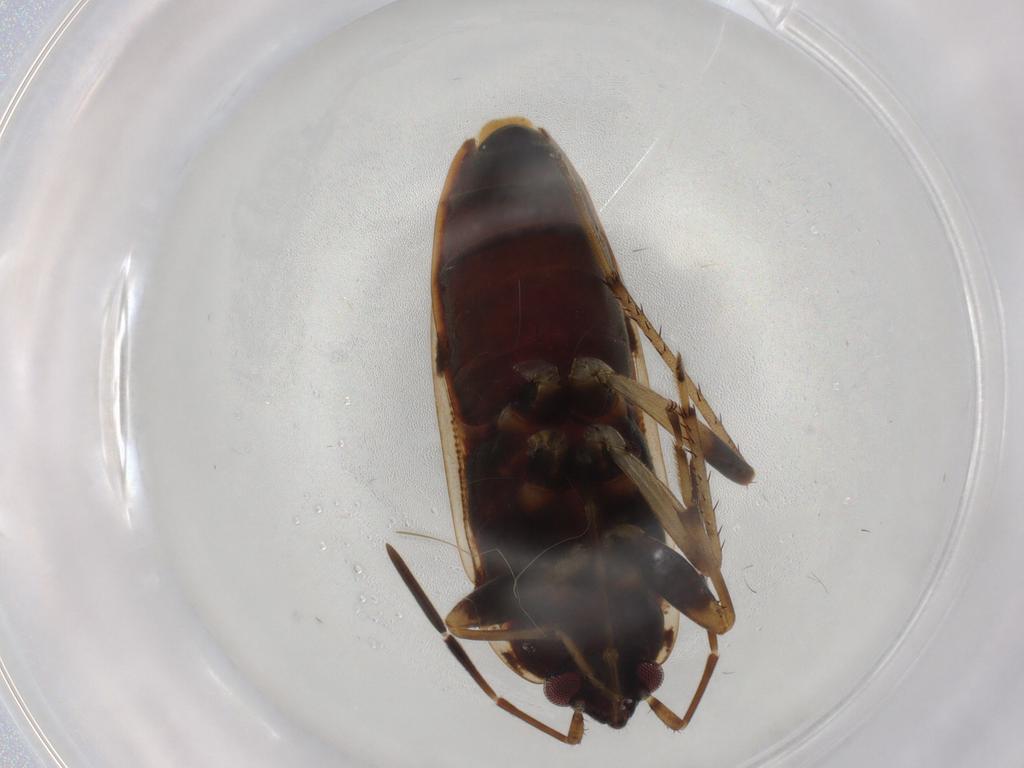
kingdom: Animalia
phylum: Arthropoda
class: Insecta
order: Hemiptera
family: Rhyparochromidae
